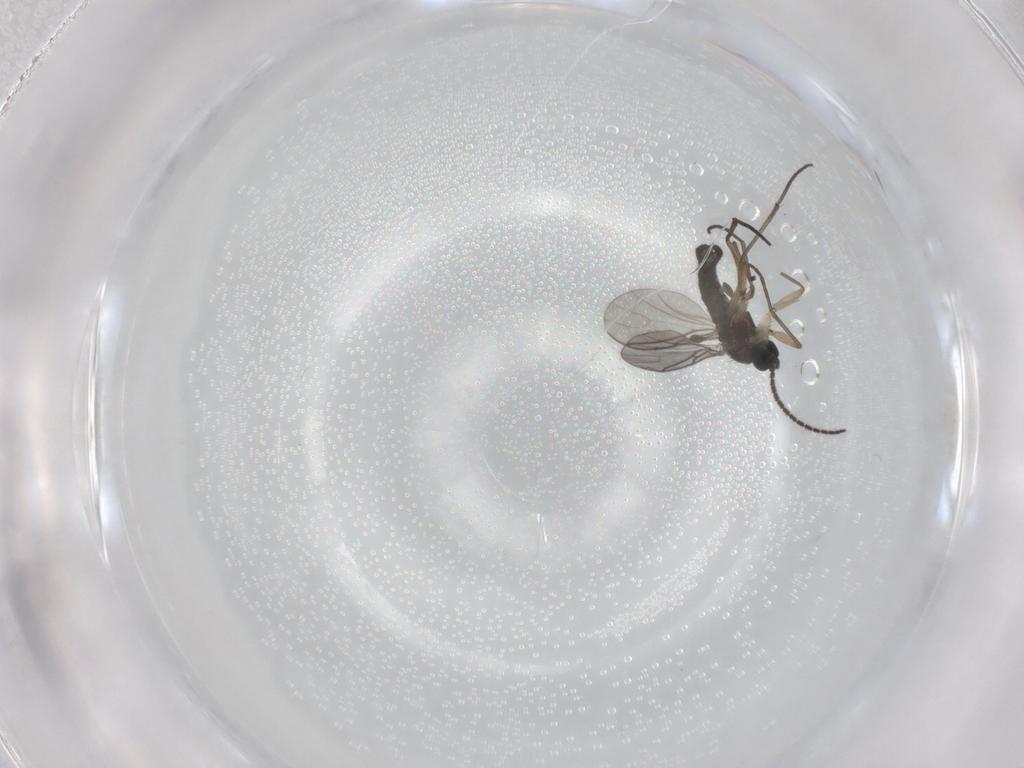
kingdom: Animalia
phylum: Arthropoda
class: Insecta
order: Diptera
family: Sciaridae
